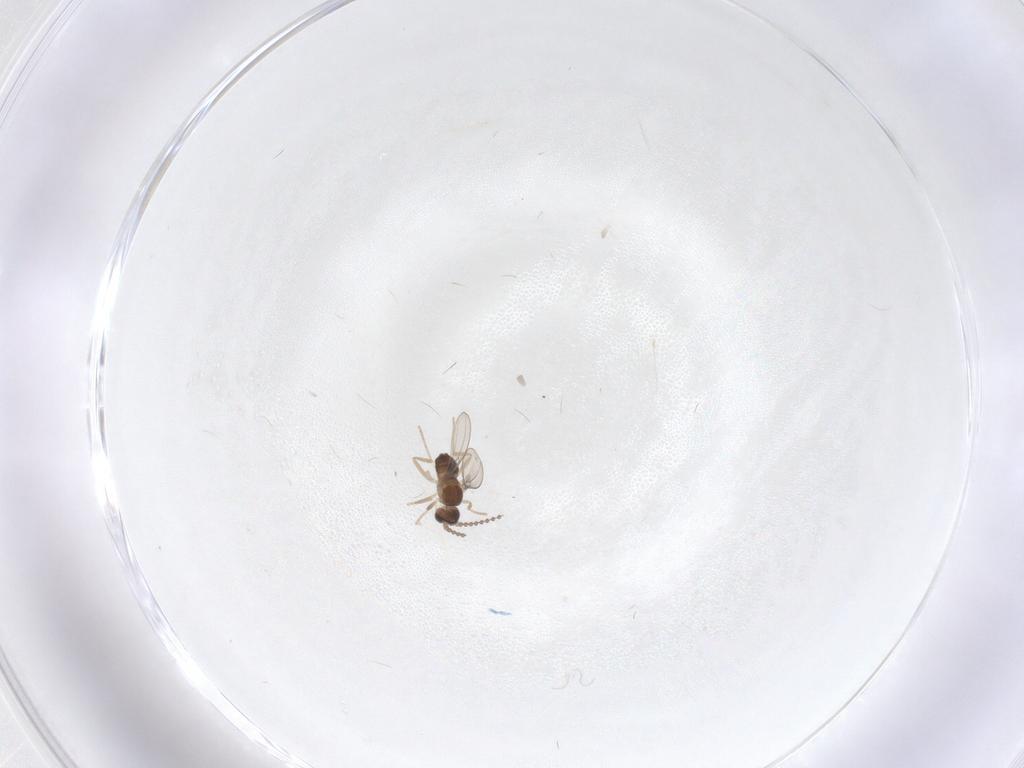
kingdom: Animalia
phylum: Arthropoda
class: Insecta
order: Diptera
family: Cecidomyiidae
